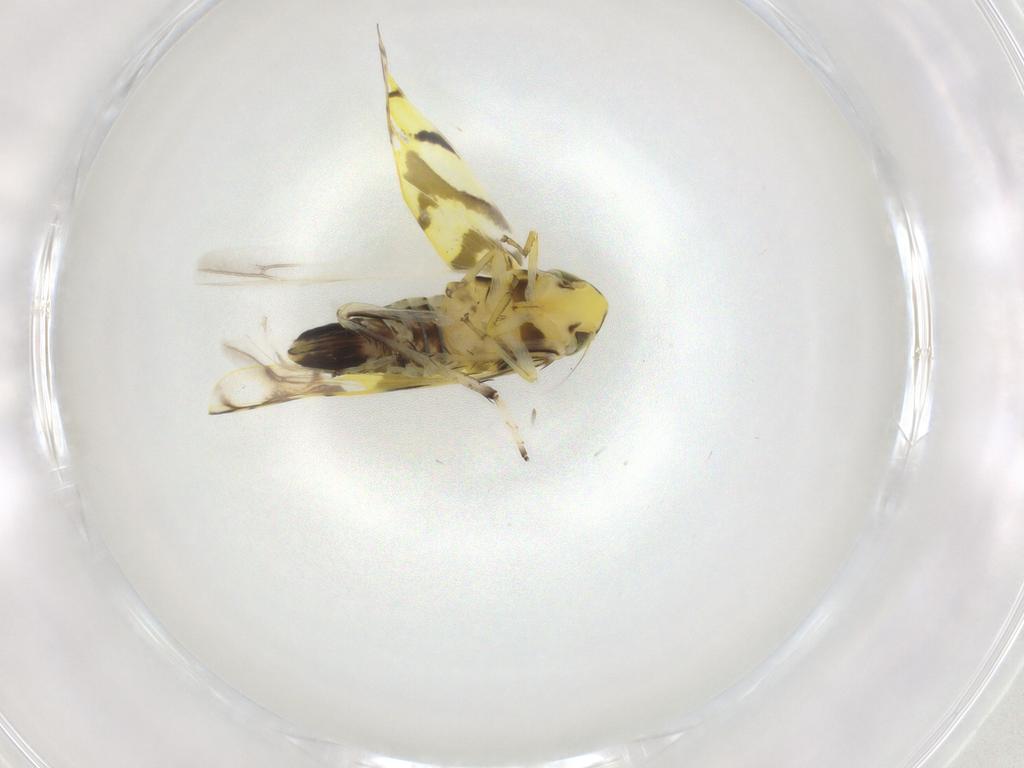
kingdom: Animalia
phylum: Arthropoda
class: Insecta
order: Hemiptera
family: Cicadellidae
